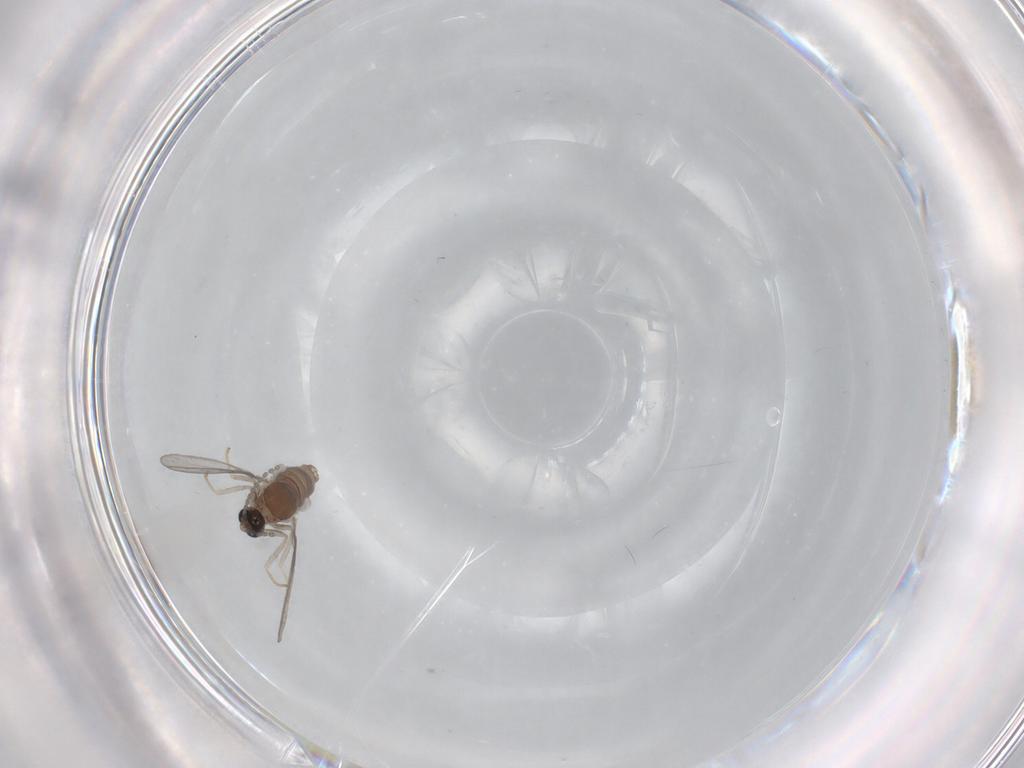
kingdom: Animalia
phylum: Arthropoda
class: Insecta
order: Diptera
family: Cecidomyiidae
